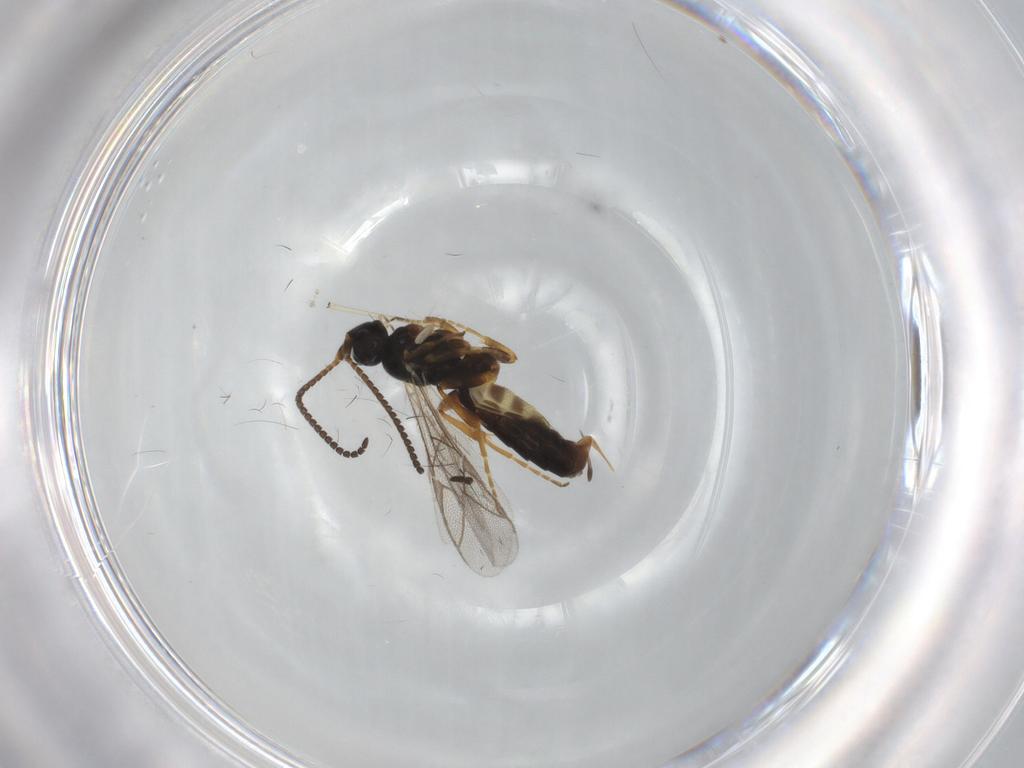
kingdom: Animalia
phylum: Arthropoda
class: Insecta
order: Hymenoptera
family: Ichneumonidae
